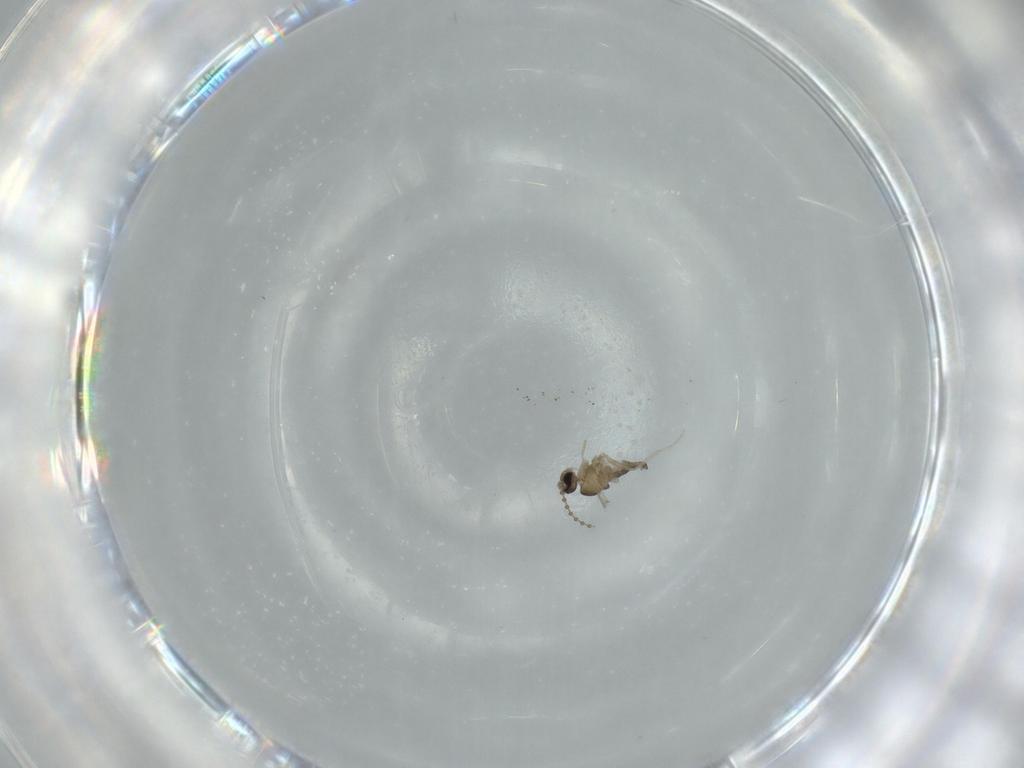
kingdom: Animalia
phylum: Arthropoda
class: Insecta
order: Diptera
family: Cecidomyiidae
